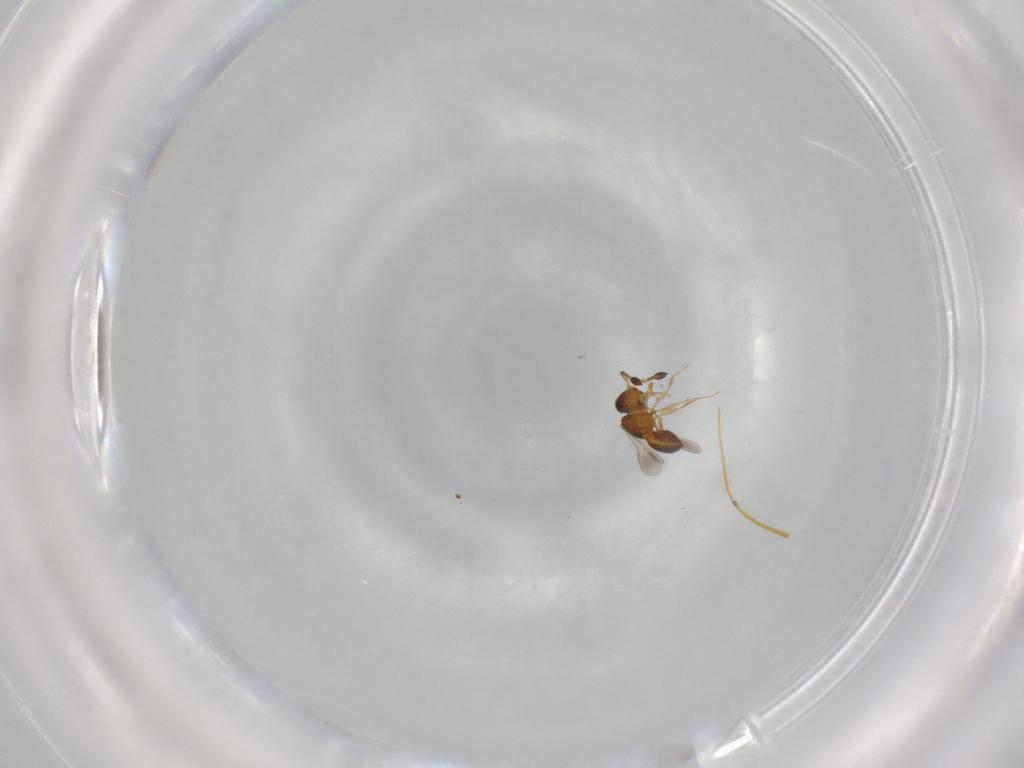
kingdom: Animalia
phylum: Arthropoda
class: Insecta
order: Hymenoptera
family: Scelionidae
